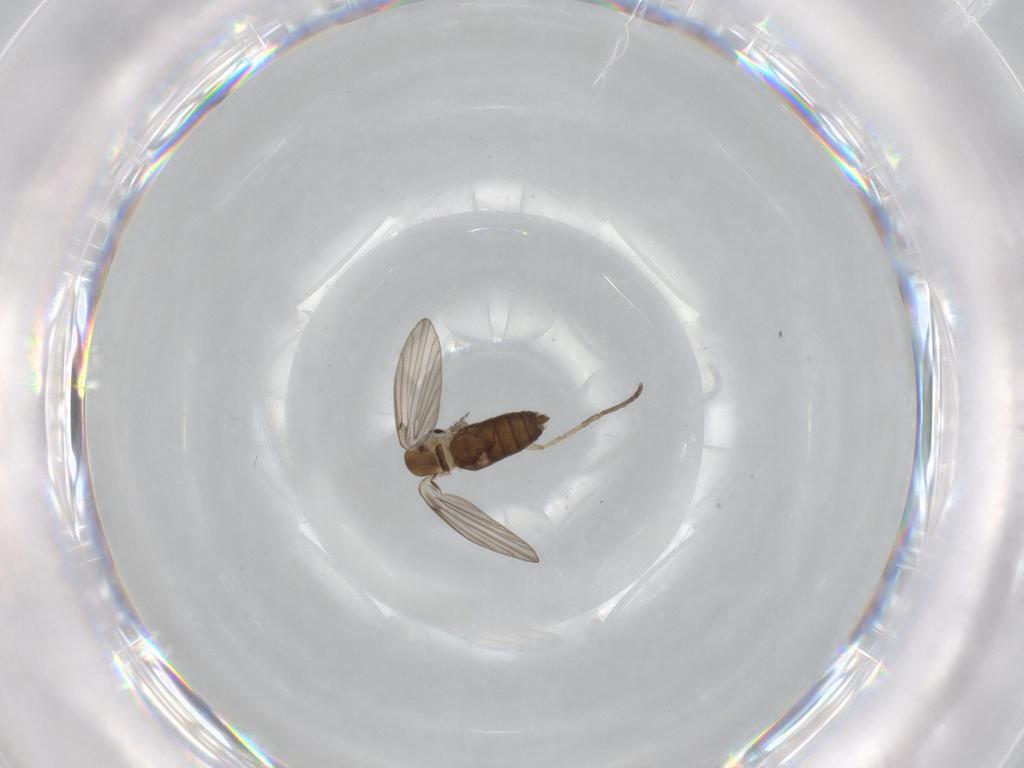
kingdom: Animalia
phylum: Arthropoda
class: Insecta
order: Diptera
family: Psychodidae
